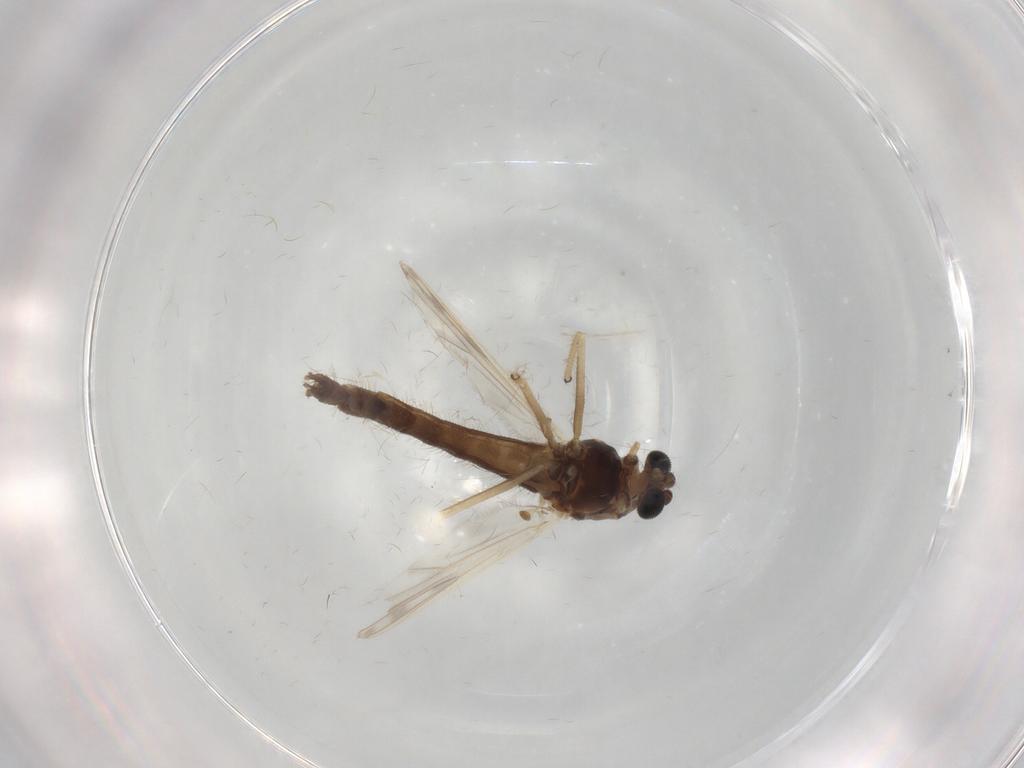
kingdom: Animalia
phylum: Arthropoda
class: Insecta
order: Diptera
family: Chironomidae
